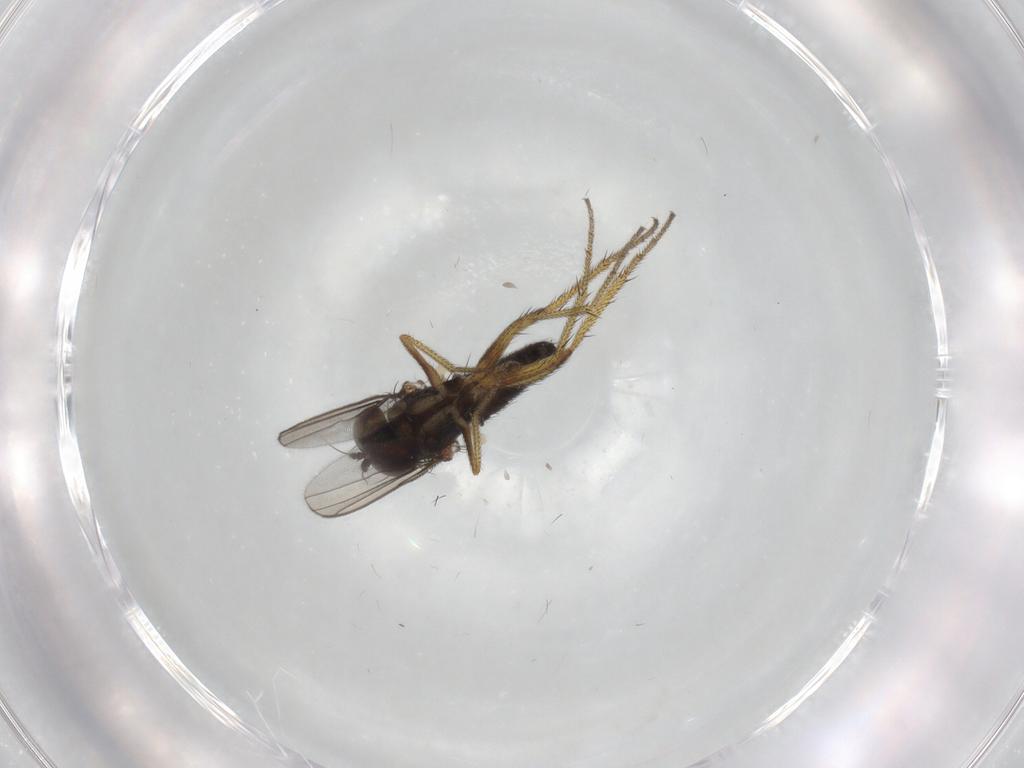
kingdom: Animalia
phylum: Arthropoda
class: Insecta
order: Diptera
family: Dolichopodidae
